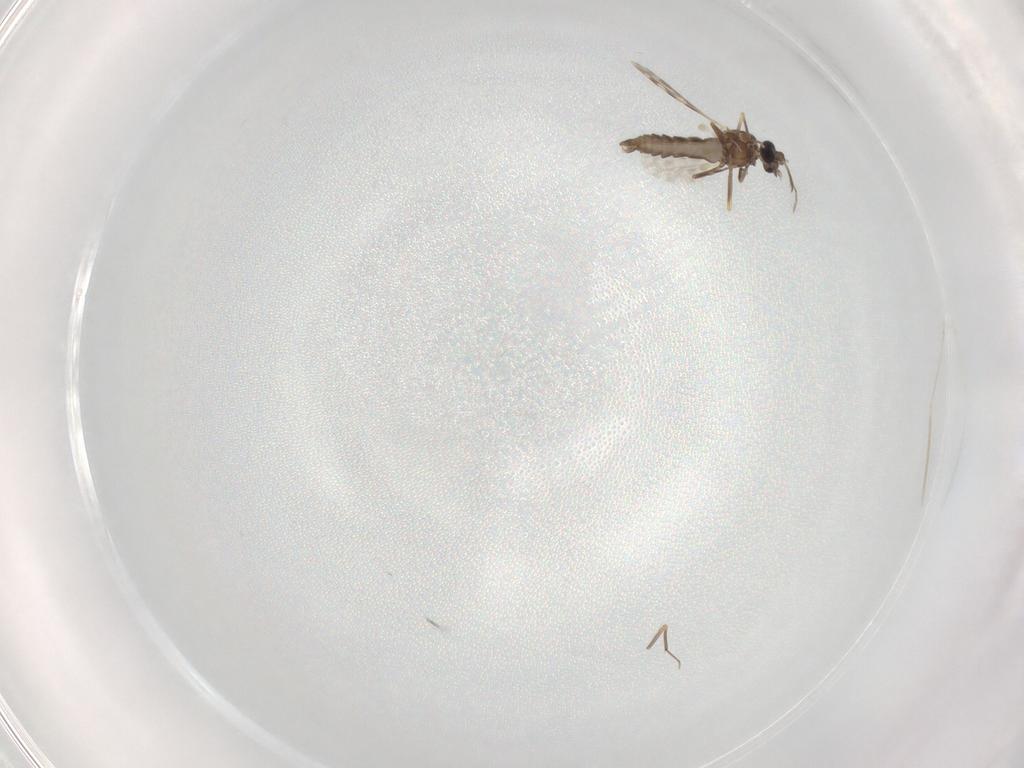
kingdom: Animalia
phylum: Arthropoda
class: Insecta
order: Diptera
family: Ceratopogonidae
